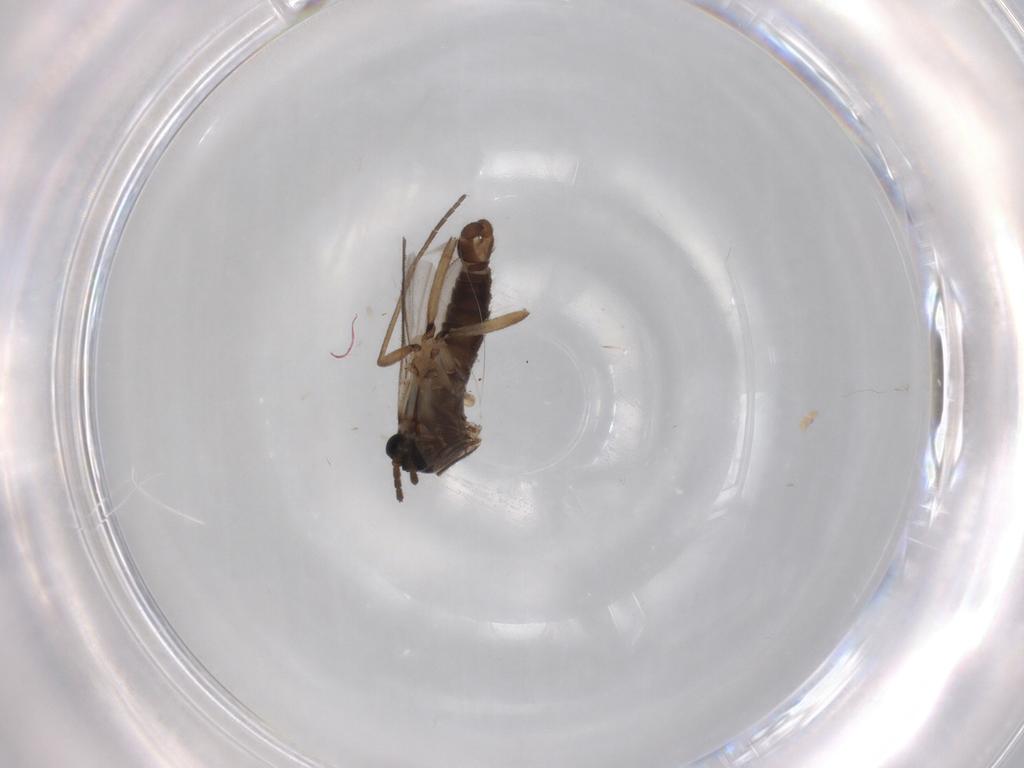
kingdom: Animalia
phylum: Arthropoda
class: Insecta
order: Diptera
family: Sciaridae
